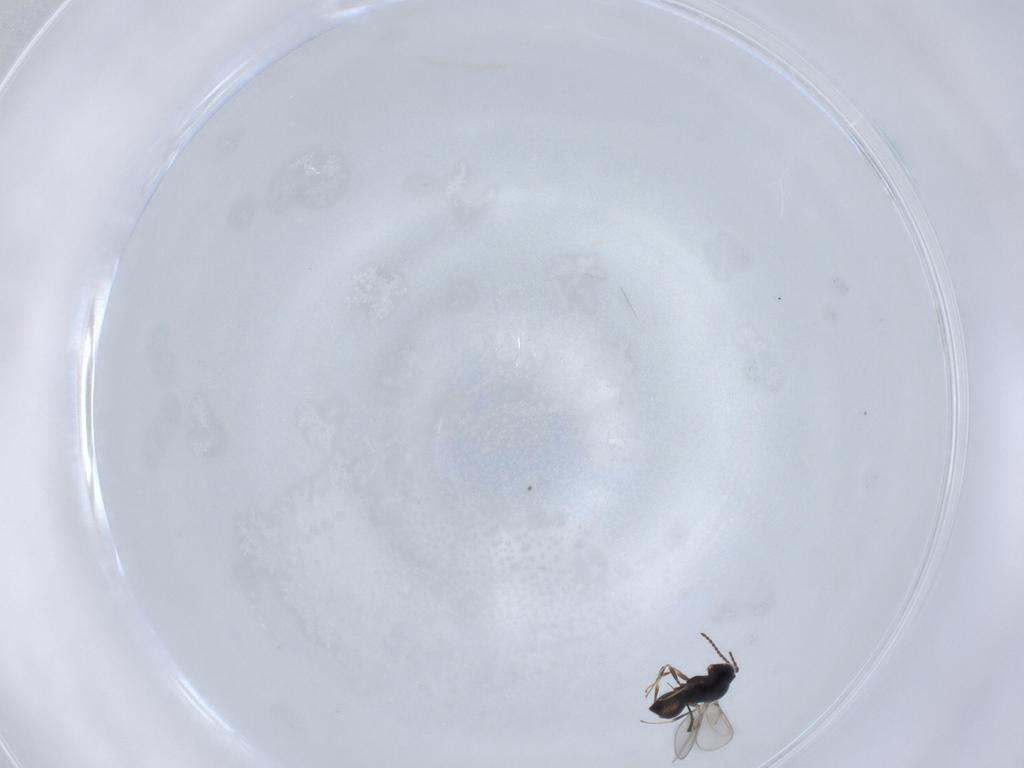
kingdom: Animalia
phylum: Arthropoda
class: Insecta
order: Hymenoptera
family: Scelionidae
